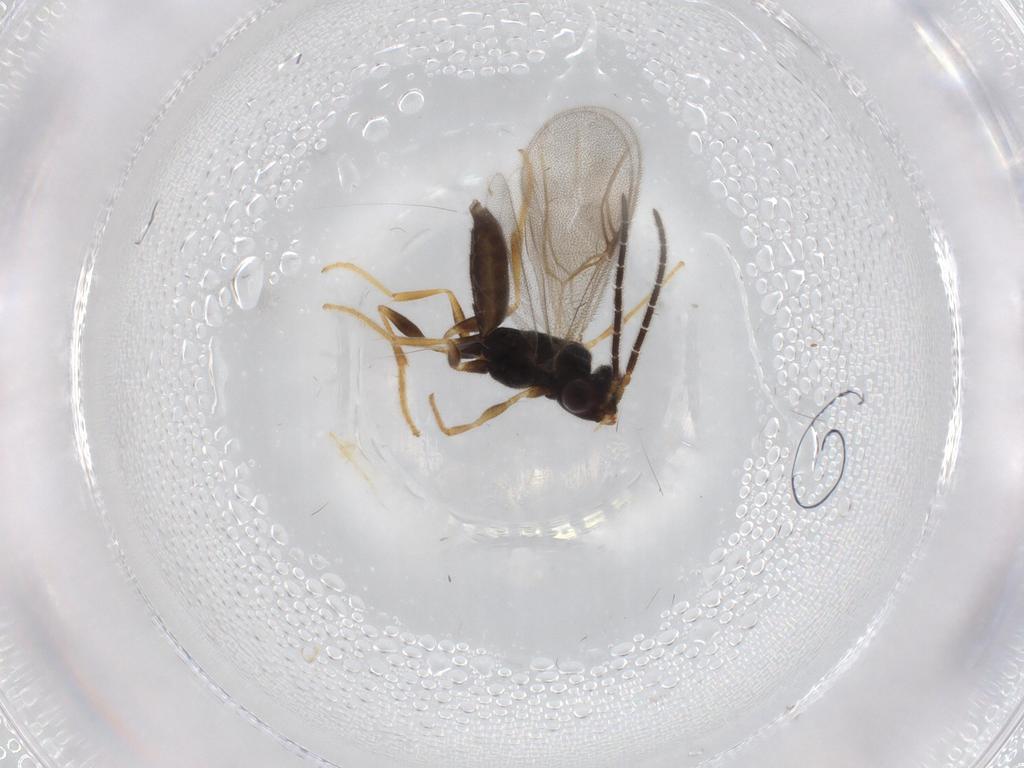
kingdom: Animalia
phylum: Arthropoda
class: Insecta
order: Hymenoptera
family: Dryinidae
